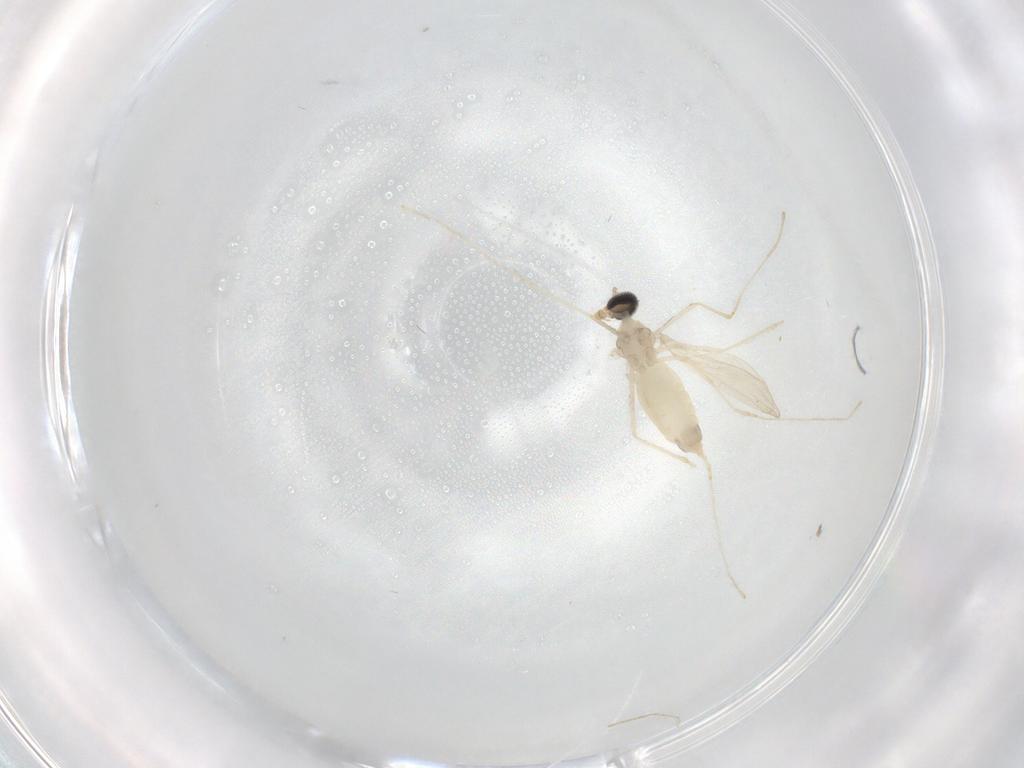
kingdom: Animalia
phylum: Arthropoda
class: Insecta
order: Diptera
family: Cecidomyiidae
